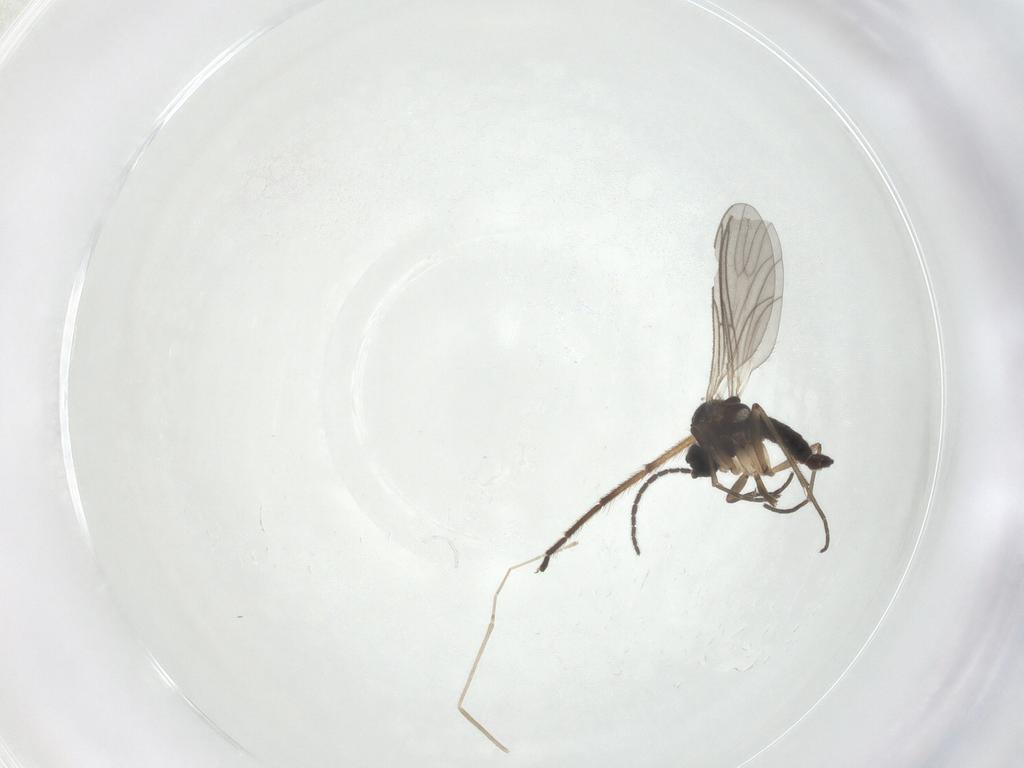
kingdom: Animalia
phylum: Arthropoda
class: Insecta
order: Diptera
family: Sciaridae
